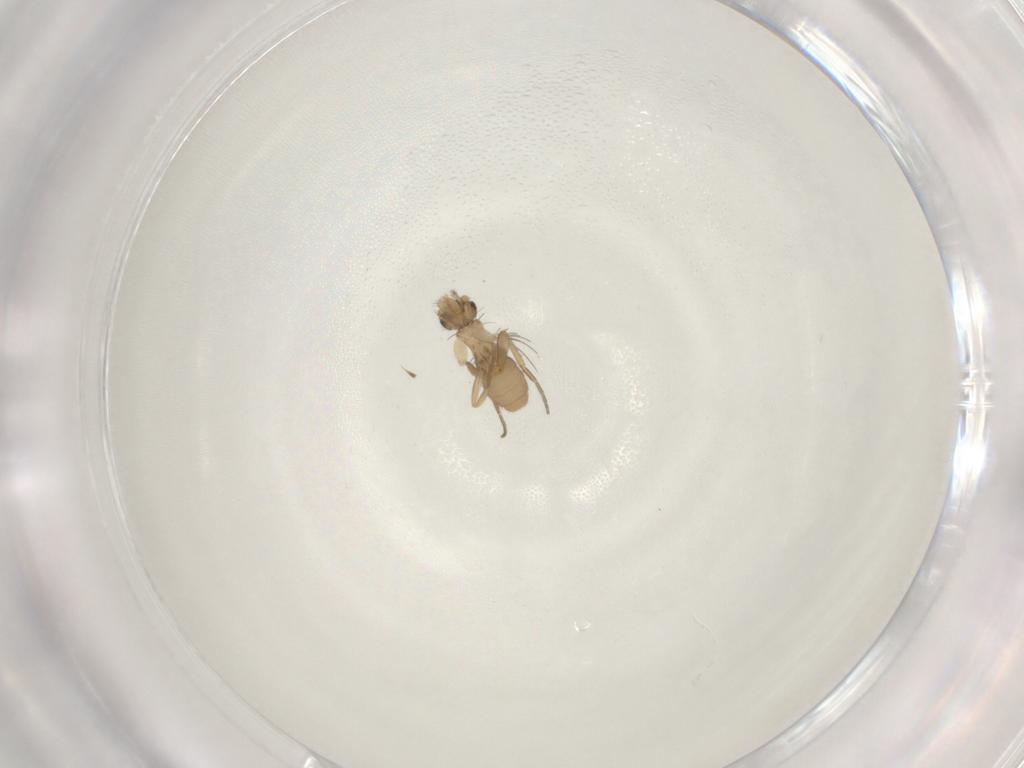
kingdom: Animalia
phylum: Arthropoda
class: Insecta
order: Diptera
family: Phoridae
